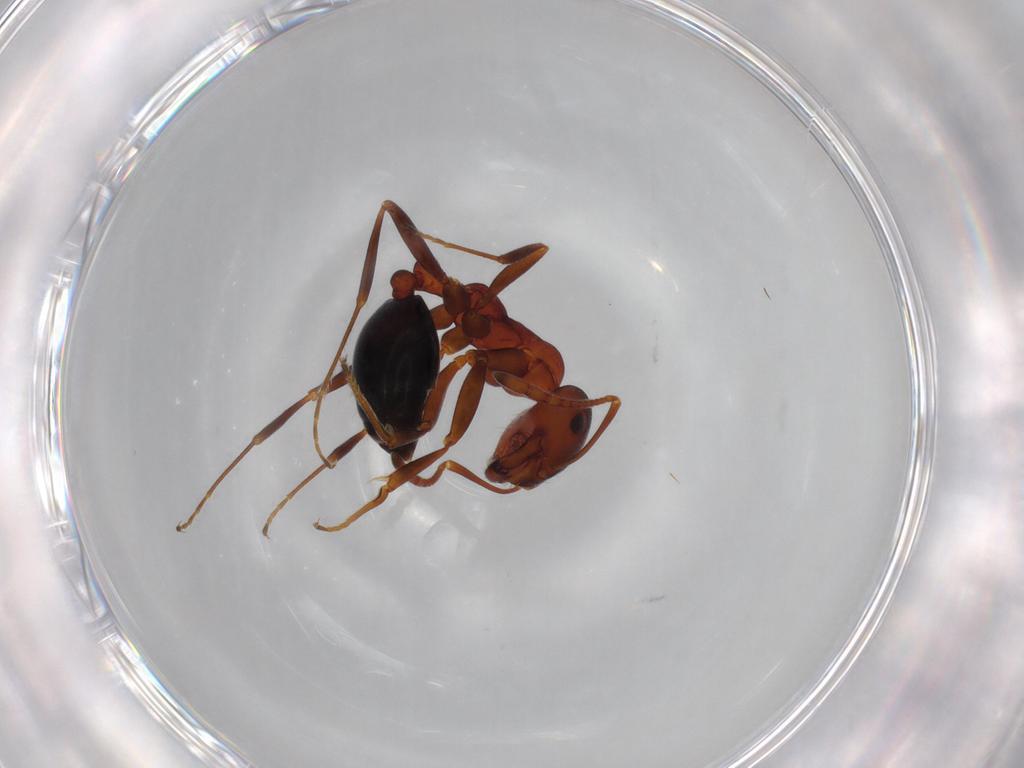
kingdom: Animalia
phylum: Arthropoda
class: Insecta
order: Hymenoptera
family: Formicidae
